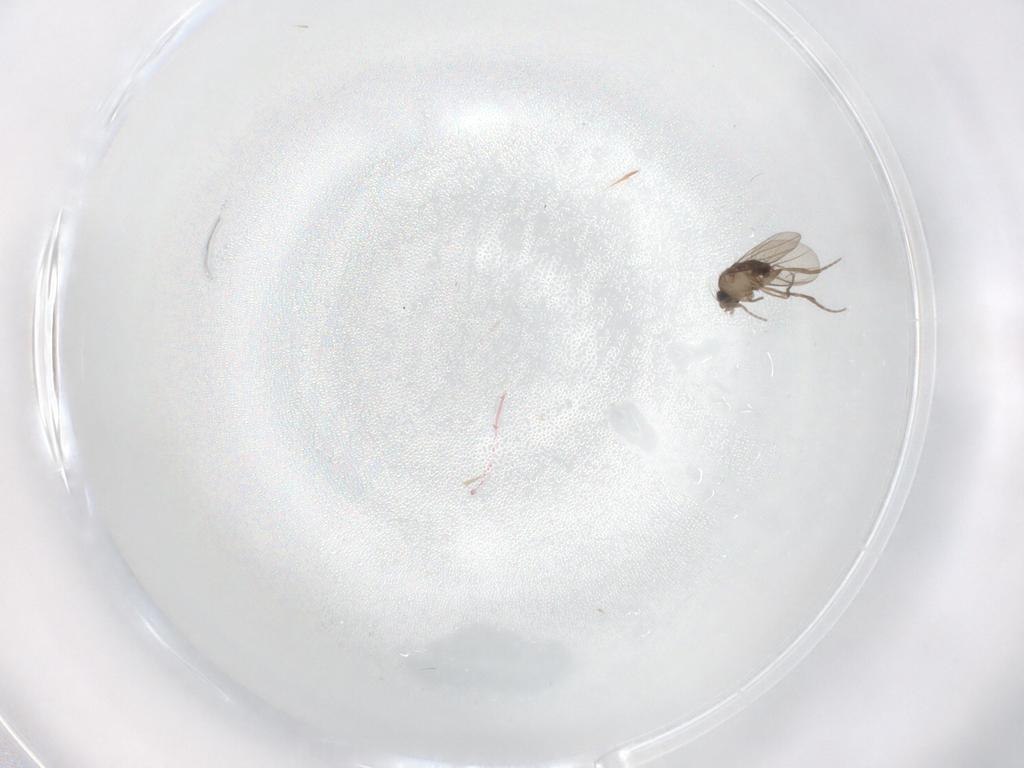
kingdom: Animalia
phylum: Arthropoda
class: Insecta
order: Diptera
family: Phoridae
